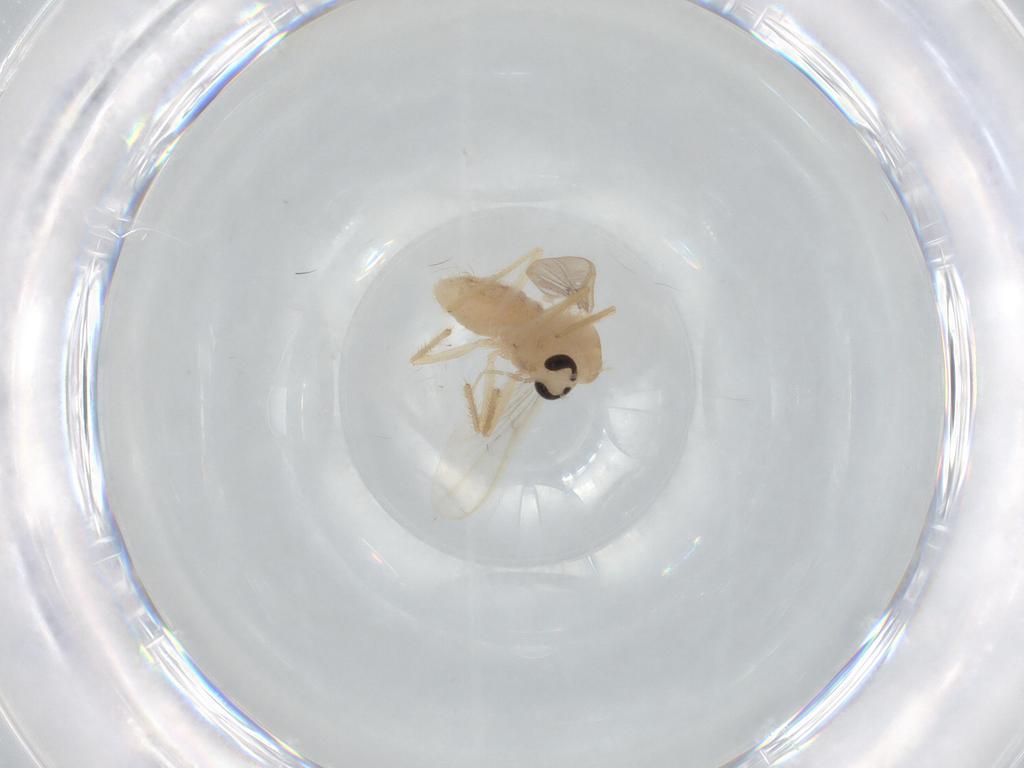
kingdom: Animalia
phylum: Arthropoda
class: Insecta
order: Diptera
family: Chironomidae
